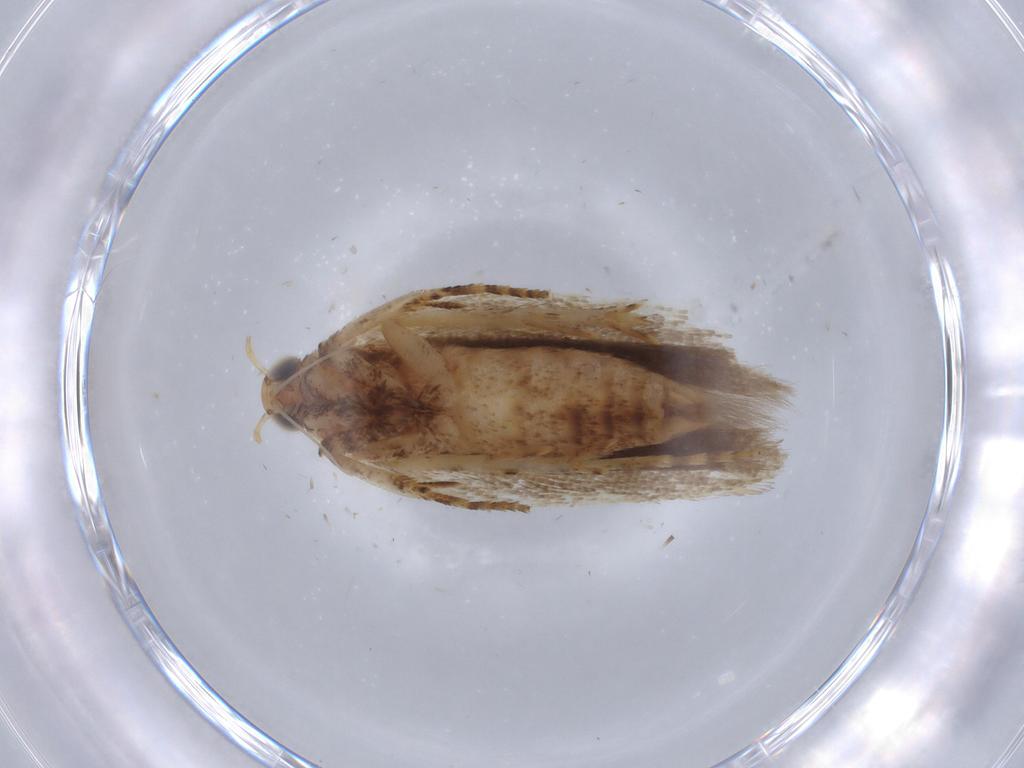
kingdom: Animalia
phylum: Arthropoda
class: Insecta
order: Lepidoptera
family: Gelechiidae
